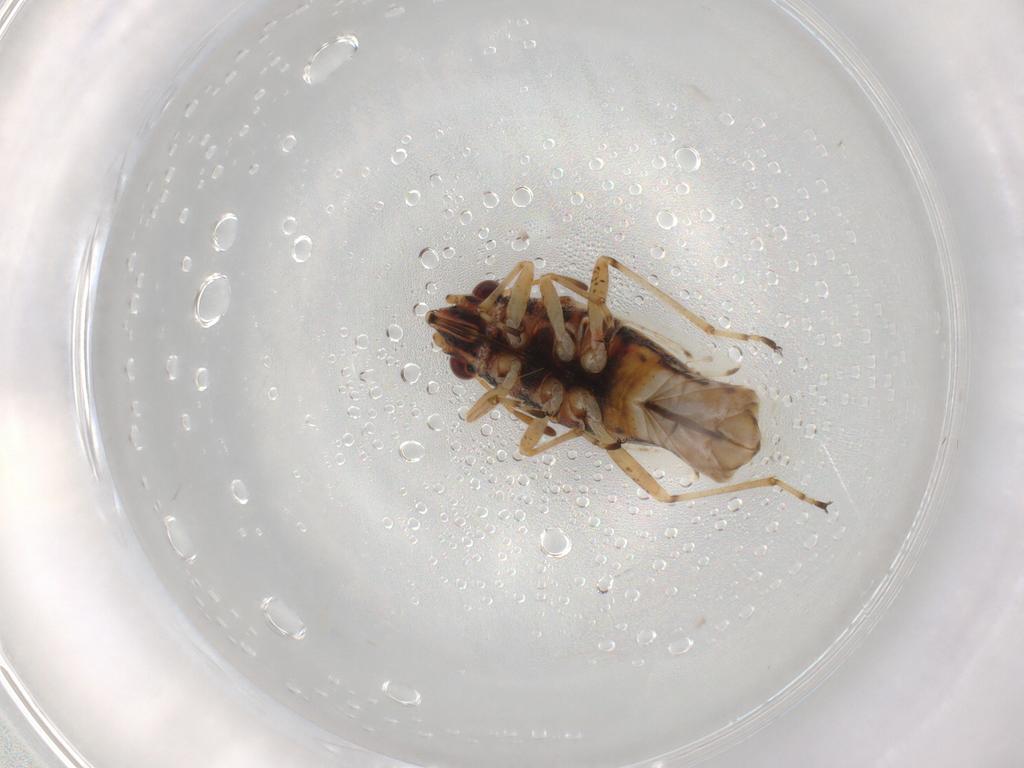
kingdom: Animalia
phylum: Arthropoda
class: Insecta
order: Hemiptera
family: Lygaeidae
